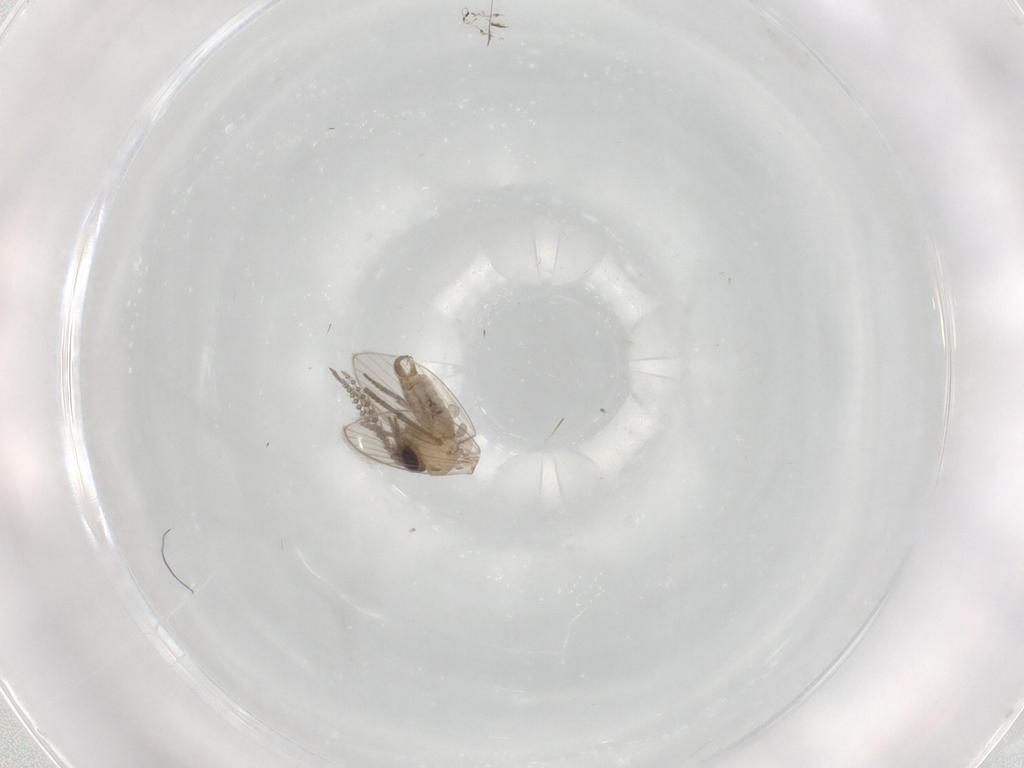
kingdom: Animalia
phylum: Arthropoda
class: Insecta
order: Diptera
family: Psychodidae
